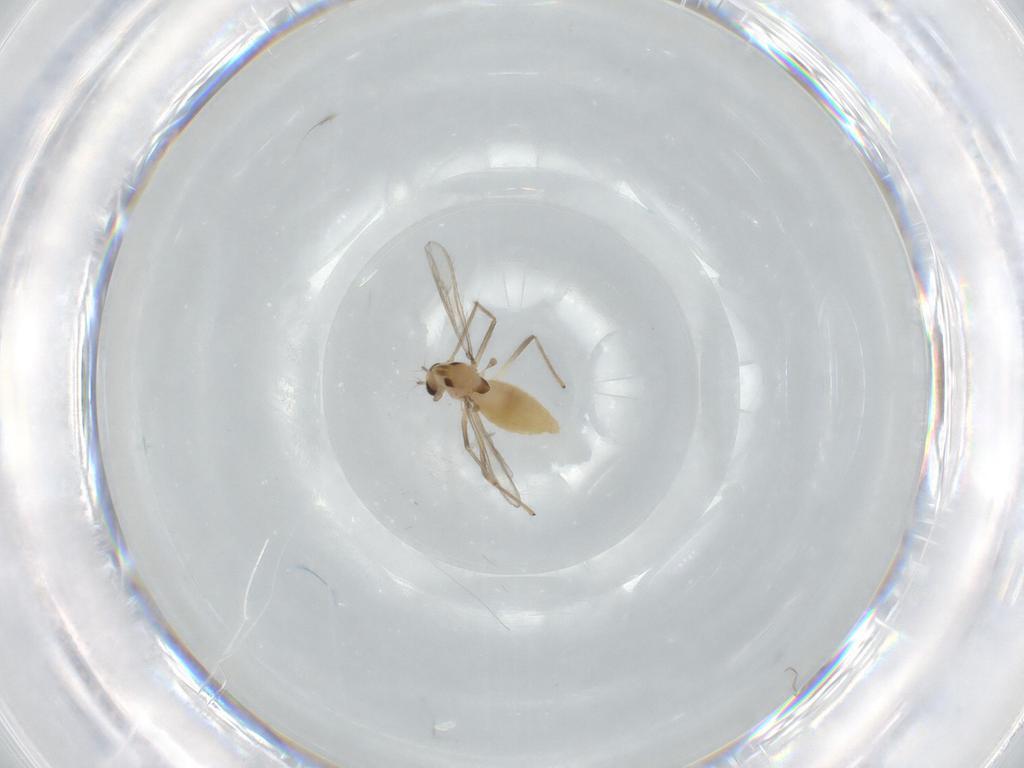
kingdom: Animalia
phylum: Arthropoda
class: Insecta
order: Diptera
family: Chironomidae
